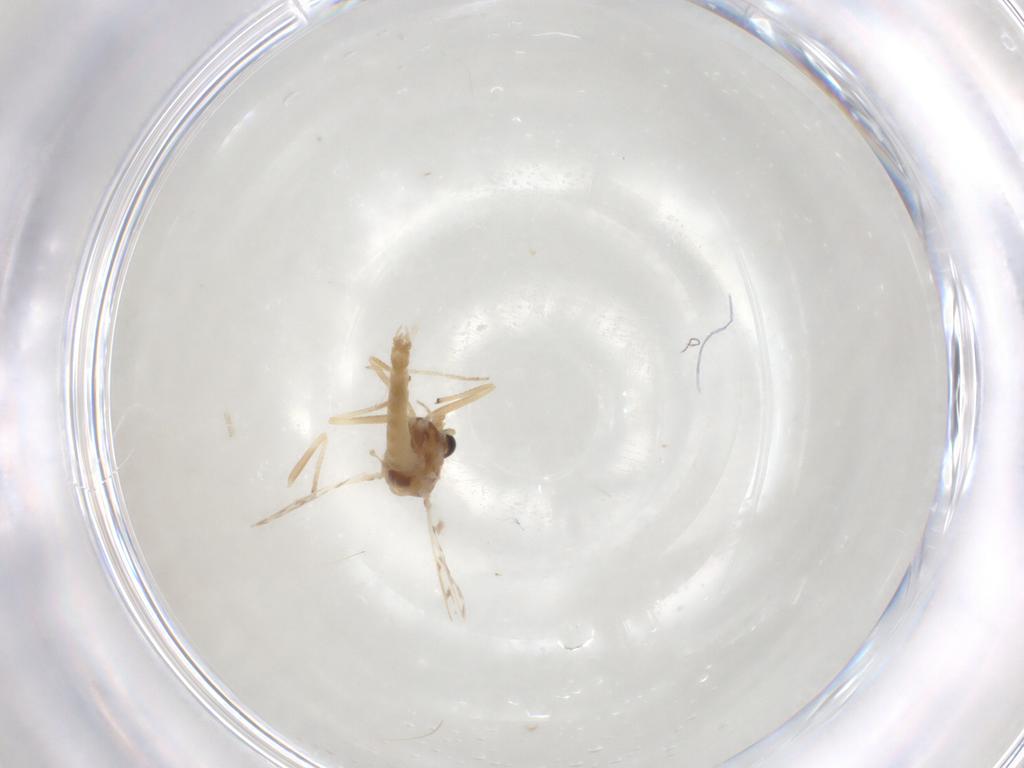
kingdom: Animalia
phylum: Arthropoda
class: Insecta
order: Diptera
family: Chironomidae
